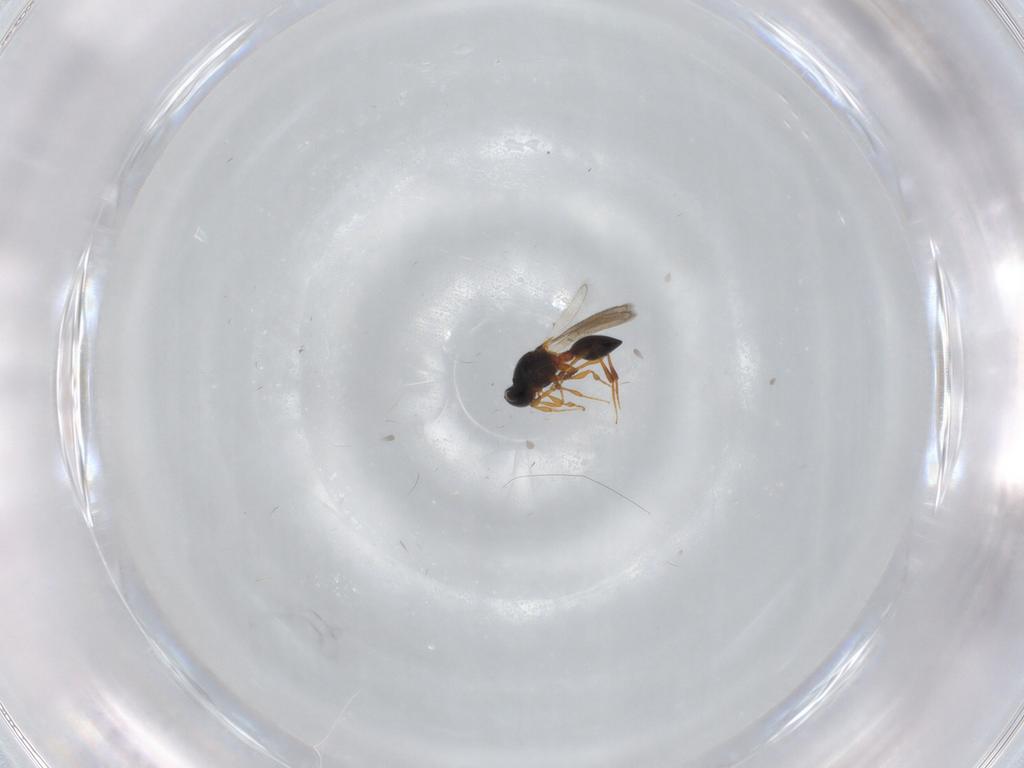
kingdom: Animalia
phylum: Arthropoda
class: Insecta
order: Hymenoptera
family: Platygastridae
